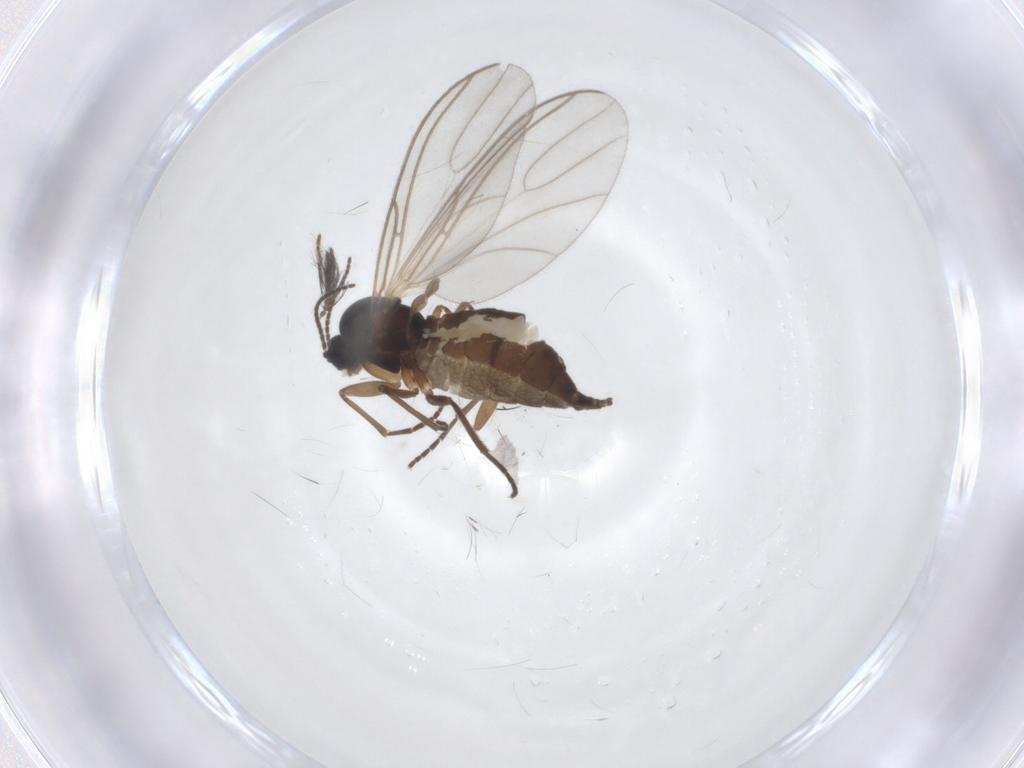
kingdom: Animalia
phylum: Arthropoda
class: Insecta
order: Diptera
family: Sciaridae
